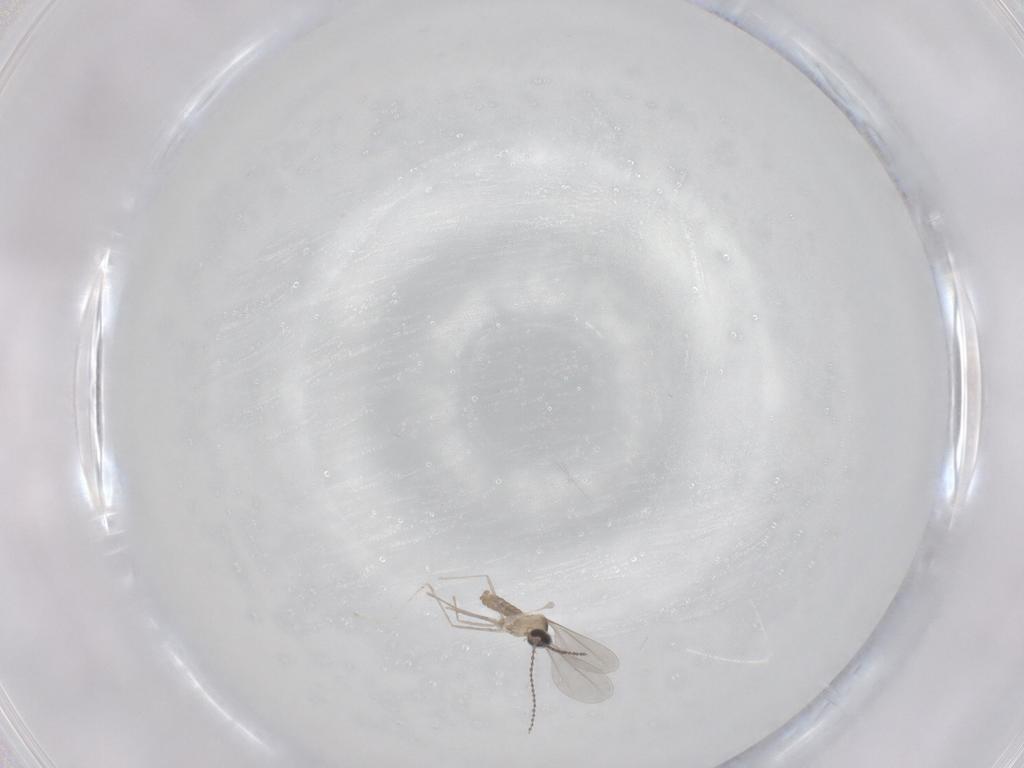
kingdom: Animalia
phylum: Arthropoda
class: Insecta
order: Diptera
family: Cecidomyiidae
